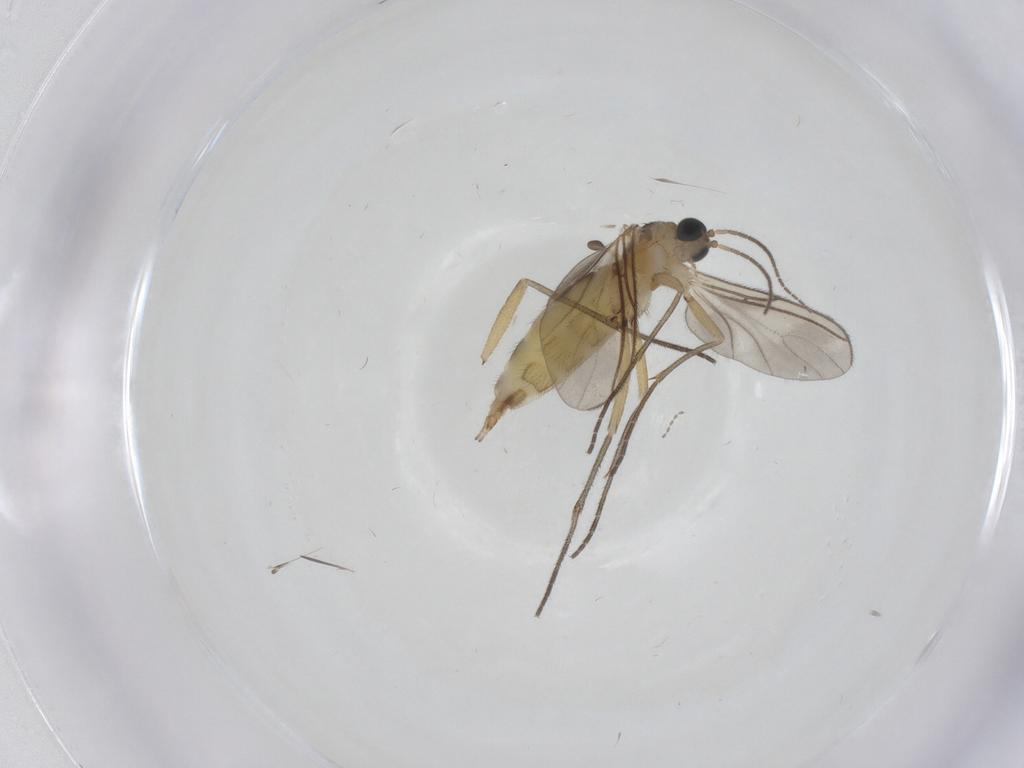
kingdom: Animalia
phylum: Arthropoda
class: Insecta
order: Diptera
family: Sciaridae
